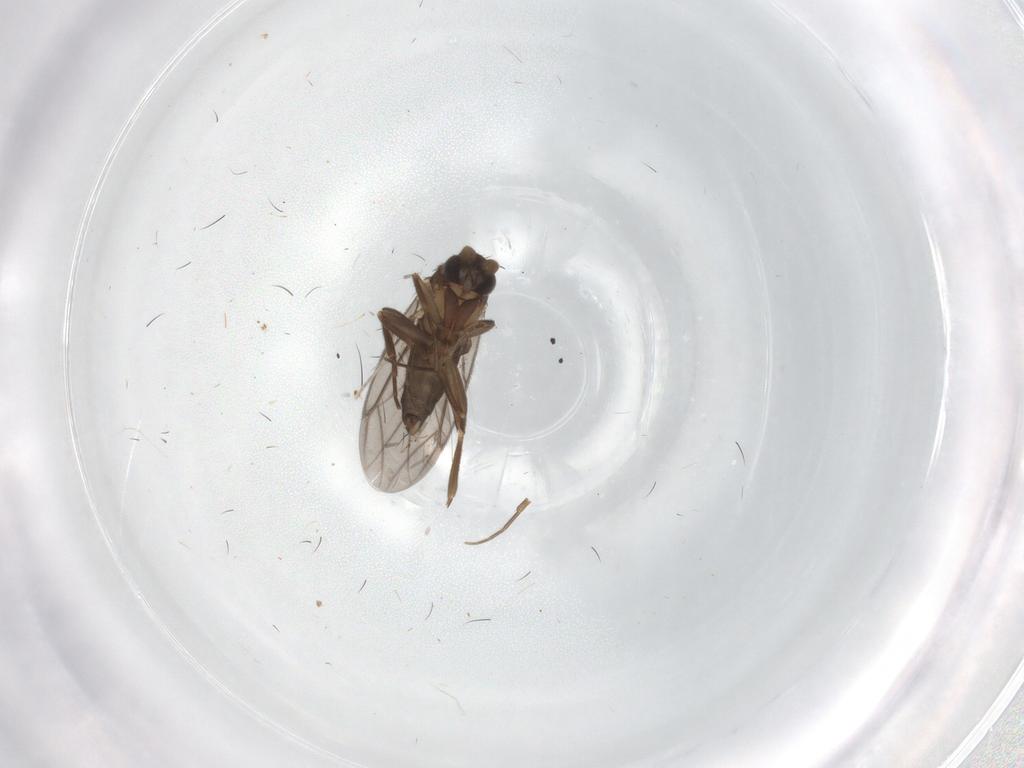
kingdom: Animalia
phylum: Arthropoda
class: Insecta
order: Diptera
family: Cecidomyiidae
